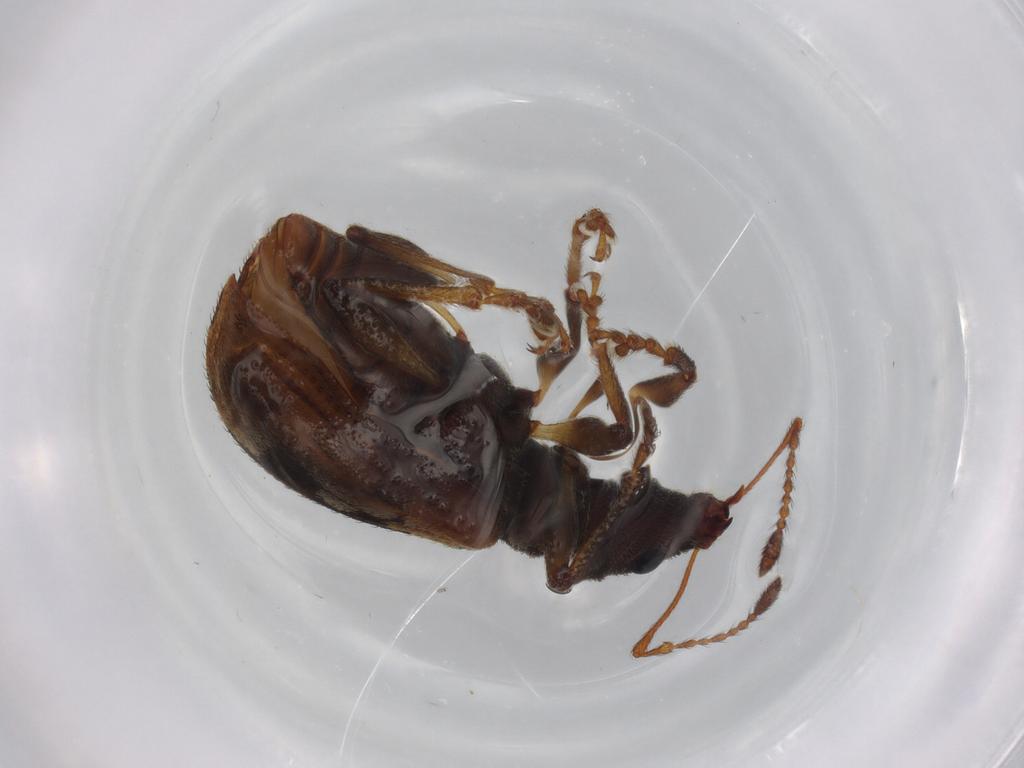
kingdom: Animalia
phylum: Arthropoda
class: Insecta
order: Coleoptera
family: Curculionidae
